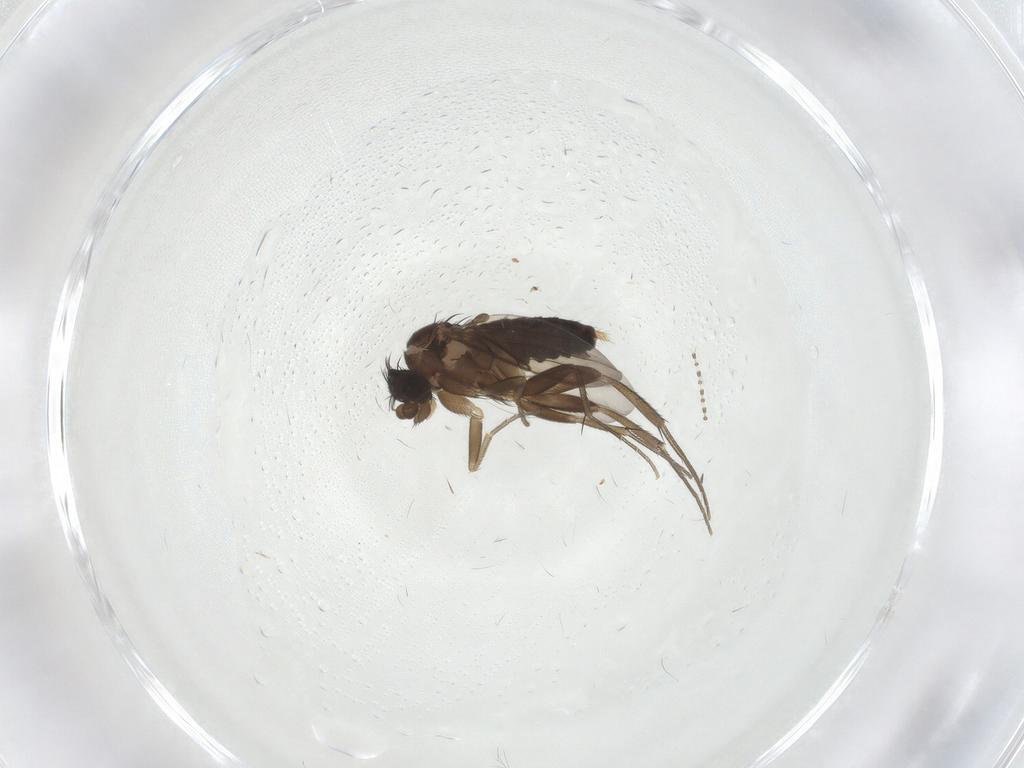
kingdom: Animalia
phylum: Arthropoda
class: Insecta
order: Diptera
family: Phoridae
